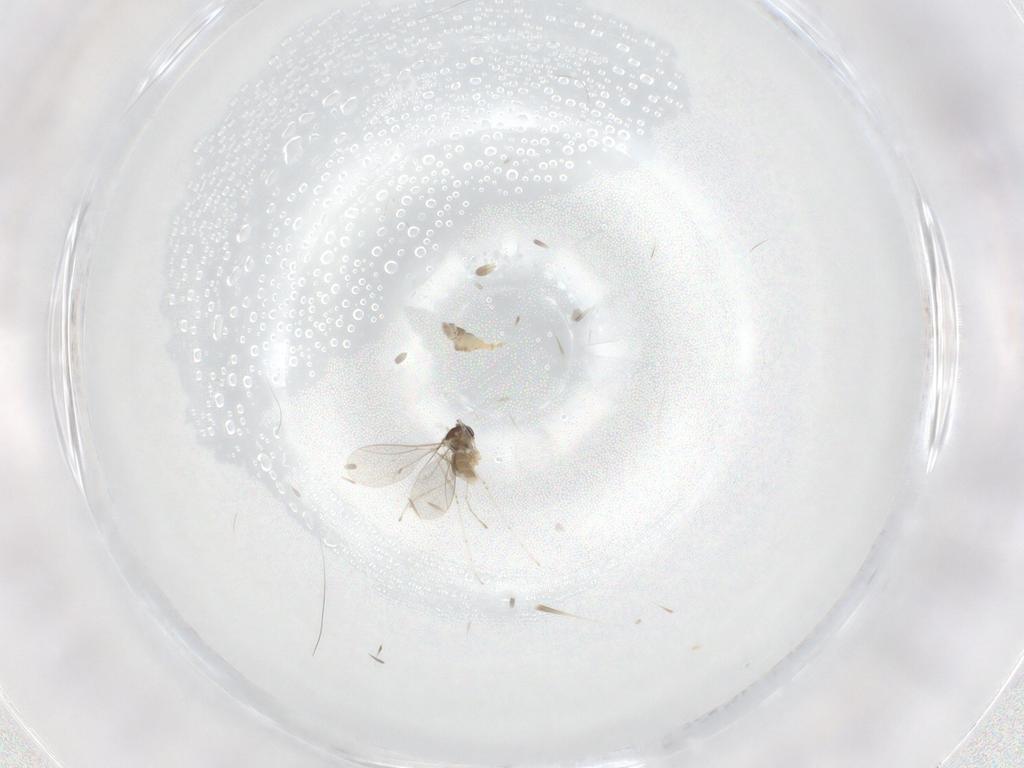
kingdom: Animalia
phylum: Arthropoda
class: Insecta
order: Diptera
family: Cecidomyiidae
